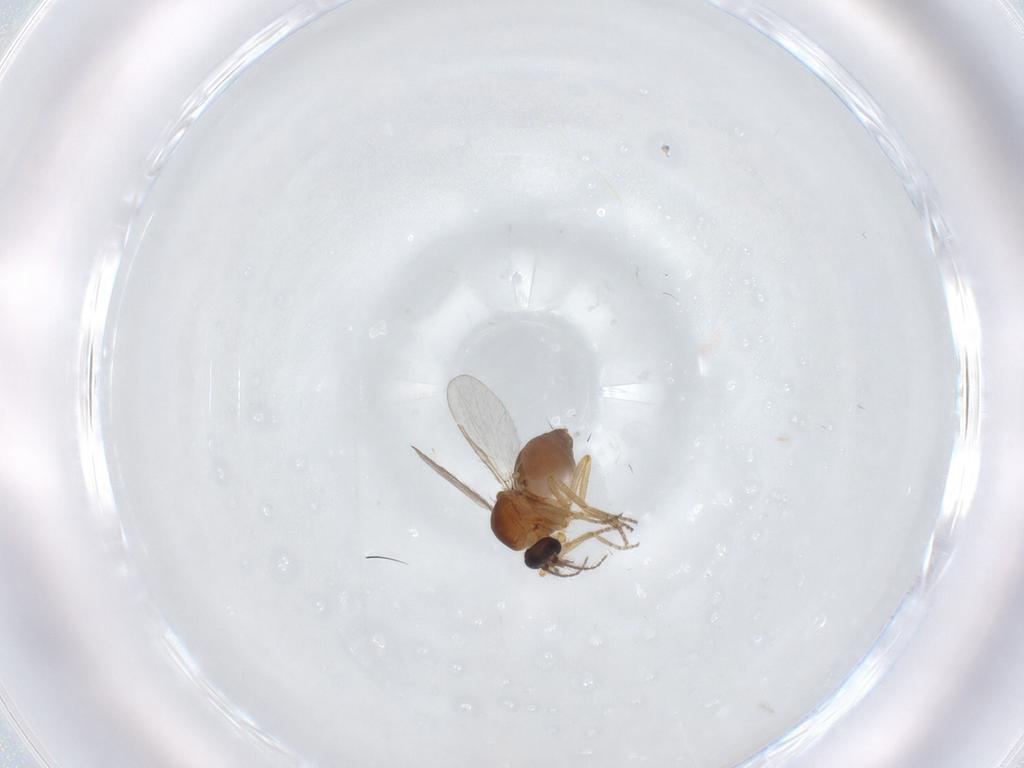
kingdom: Animalia
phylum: Arthropoda
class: Insecta
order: Diptera
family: Ceratopogonidae
